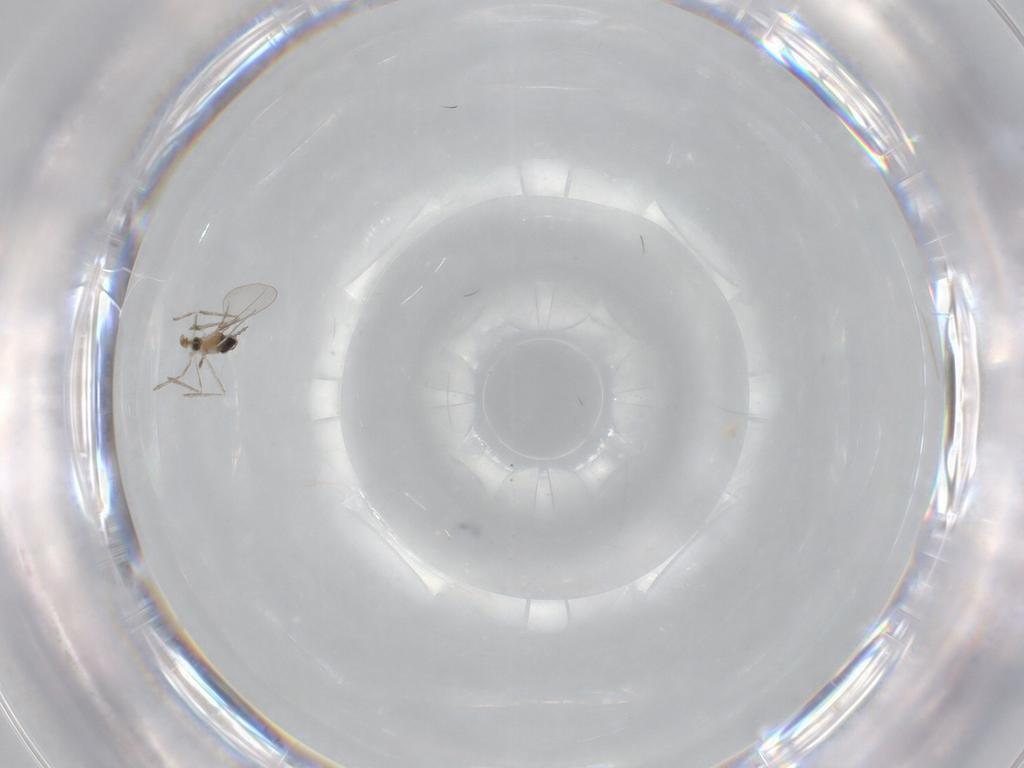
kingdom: Animalia
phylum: Arthropoda
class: Insecta
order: Diptera
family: Cecidomyiidae
